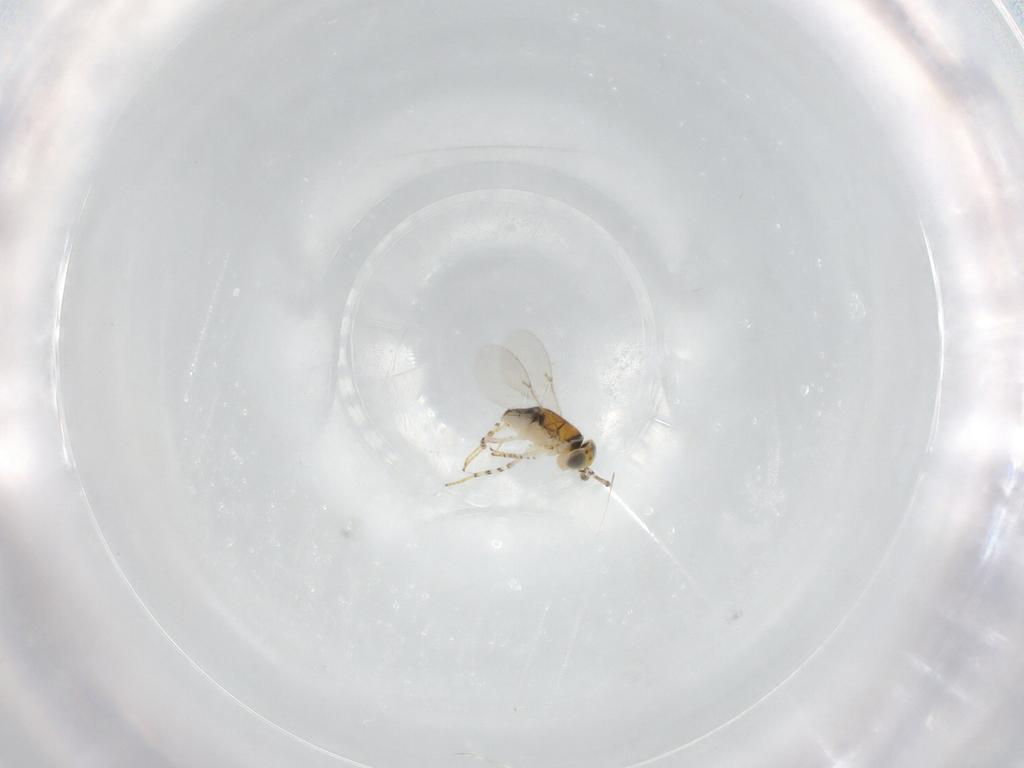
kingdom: Animalia
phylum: Arthropoda
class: Insecta
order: Hymenoptera
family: Encyrtidae
